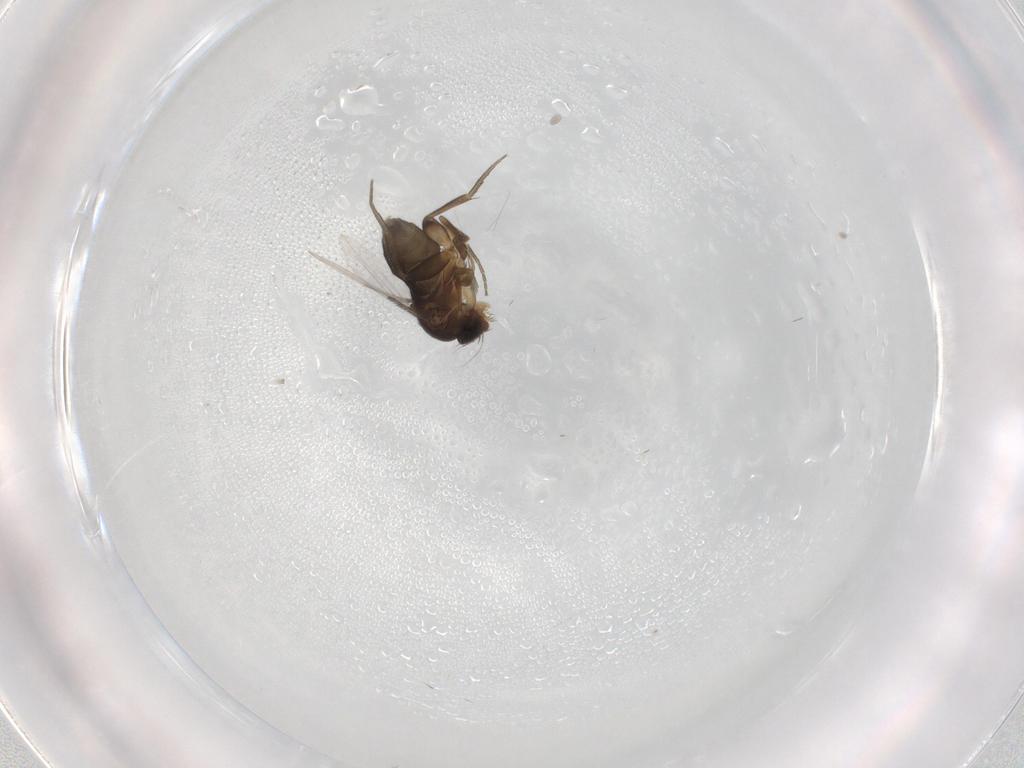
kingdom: Animalia
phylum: Arthropoda
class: Insecta
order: Diptera
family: Phoridae
